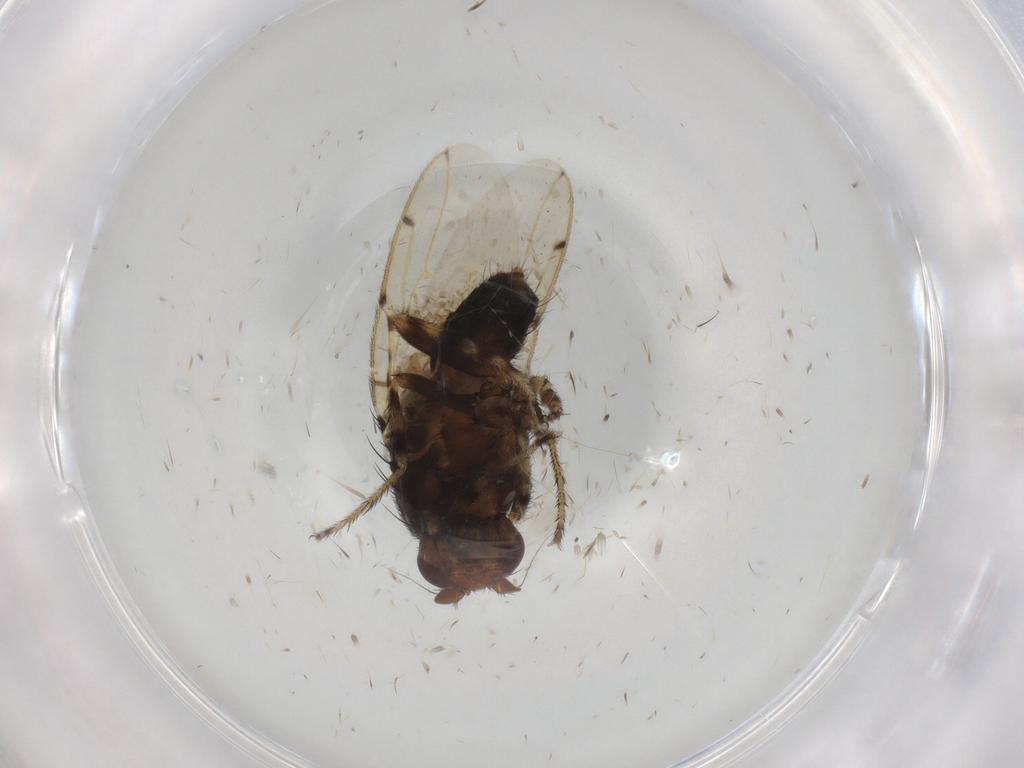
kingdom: Animalia
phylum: Arthropoda
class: Insecta
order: Diptera
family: Sphaeroceridae
